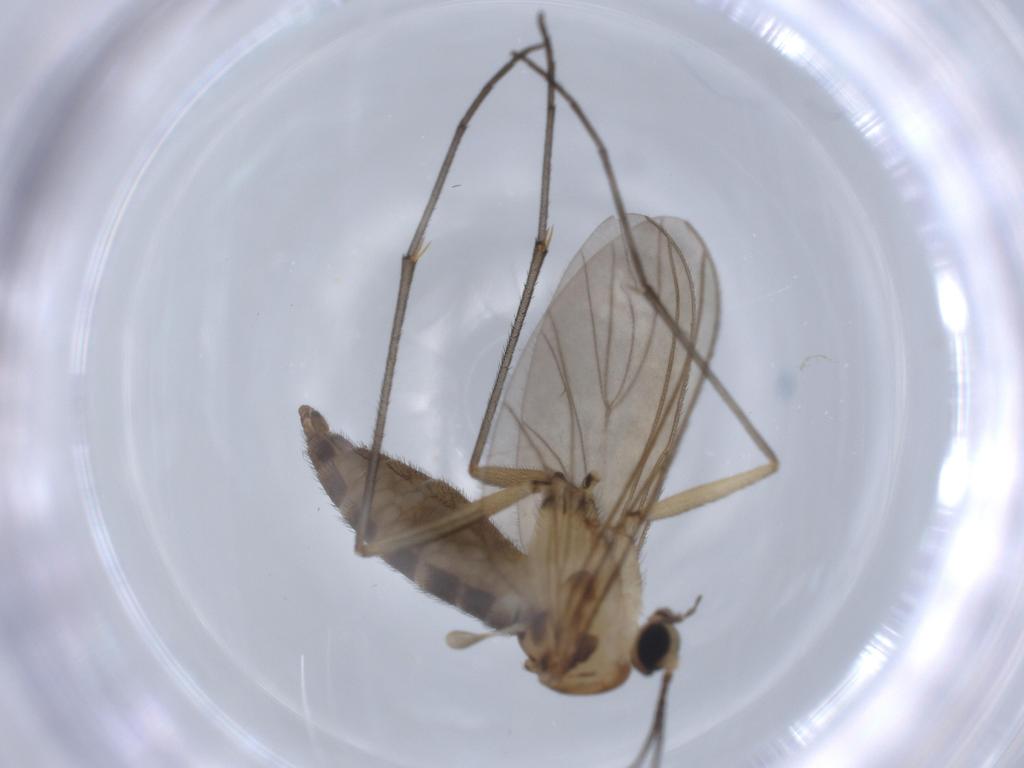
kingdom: Animalia
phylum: Arthropoda
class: Insecta
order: Diptera
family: Sciaridae
